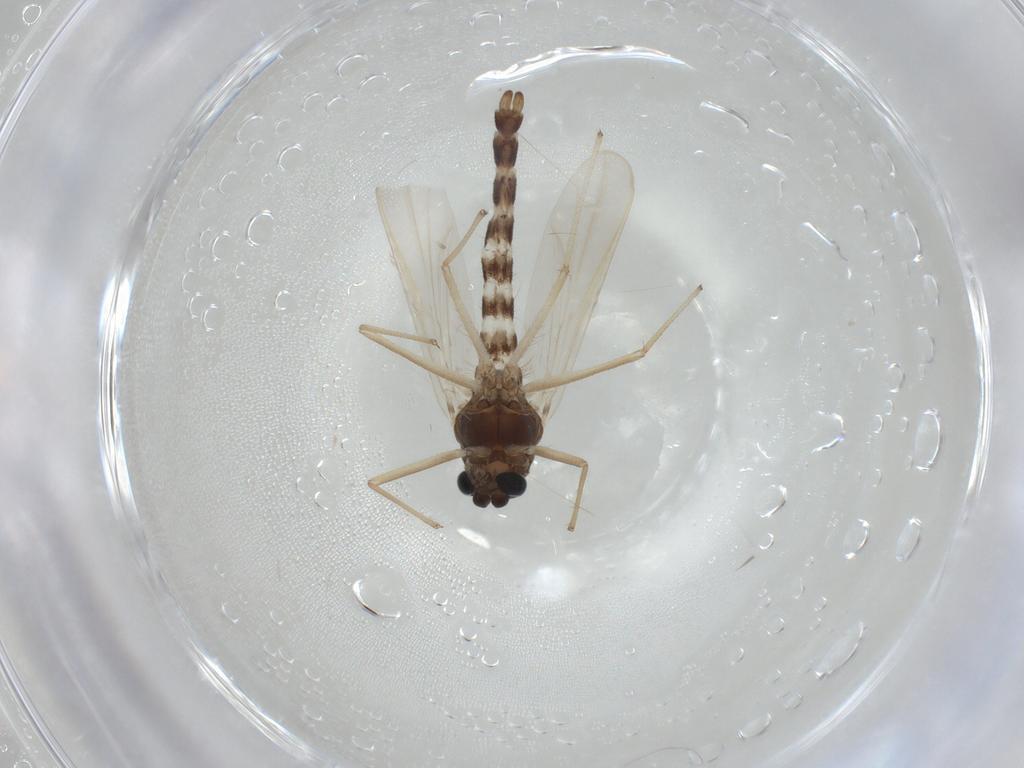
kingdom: Animalia
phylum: Arthropoda
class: Insecta
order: Diptera
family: Chironomidae
